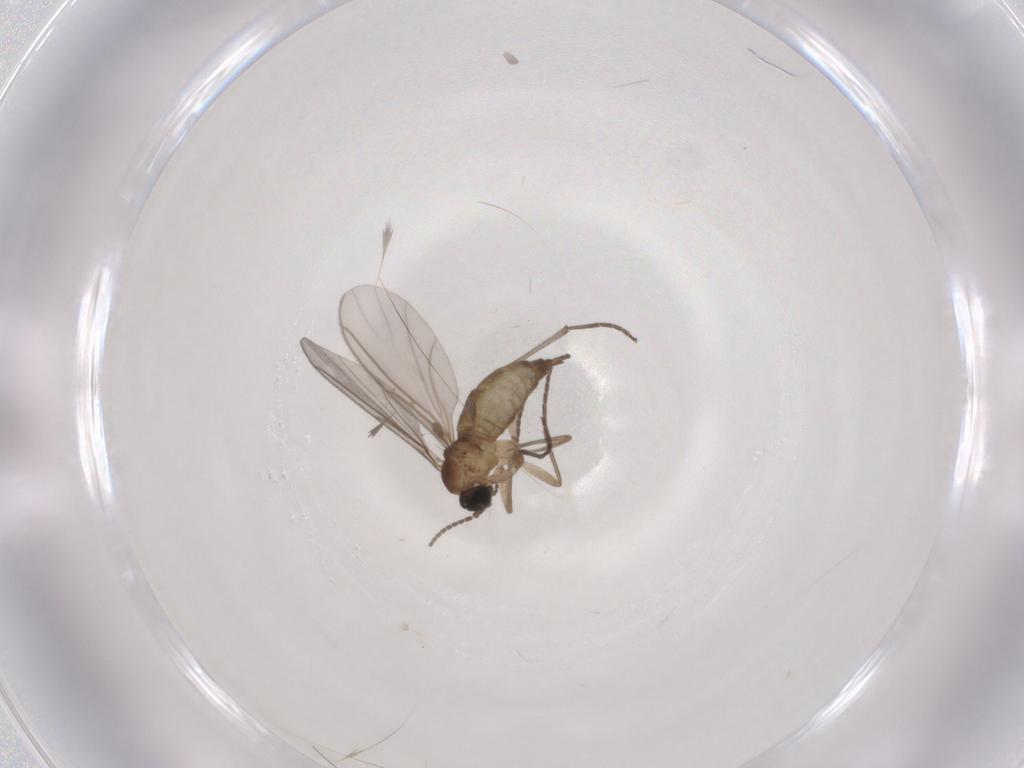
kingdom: Animalia
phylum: Arthropoda
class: Insecta
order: Diptera
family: Sciaridae
